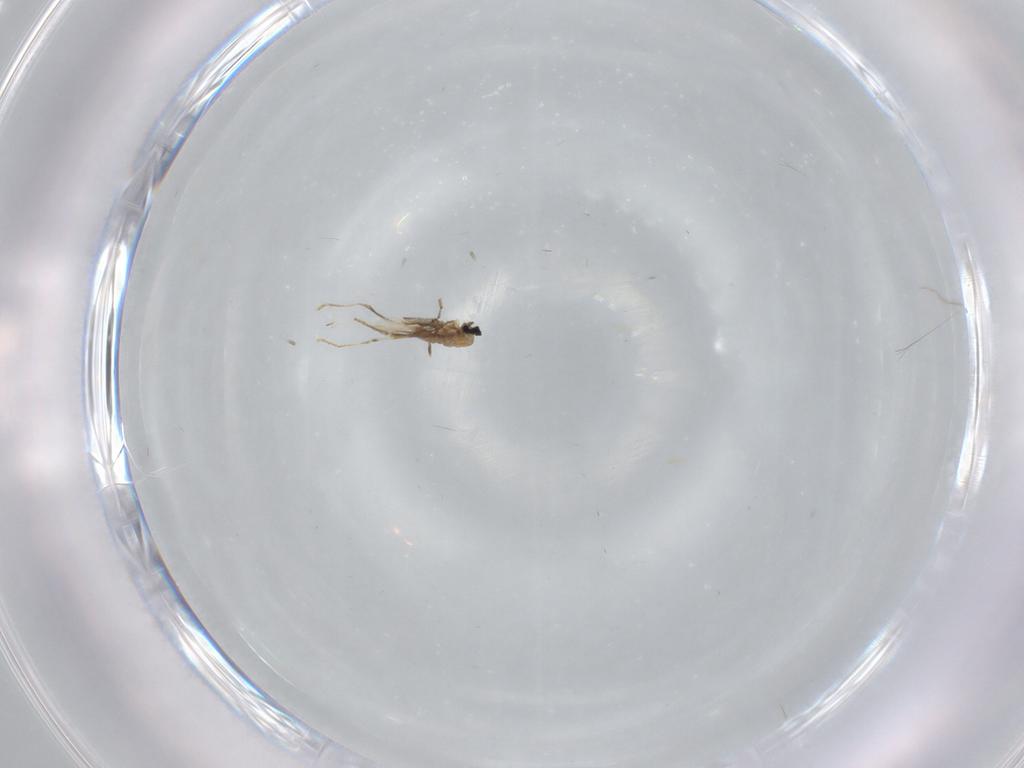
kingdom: Animalia
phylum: Arthropoda
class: Insecta
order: Diptera
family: Cecidomyiidae
